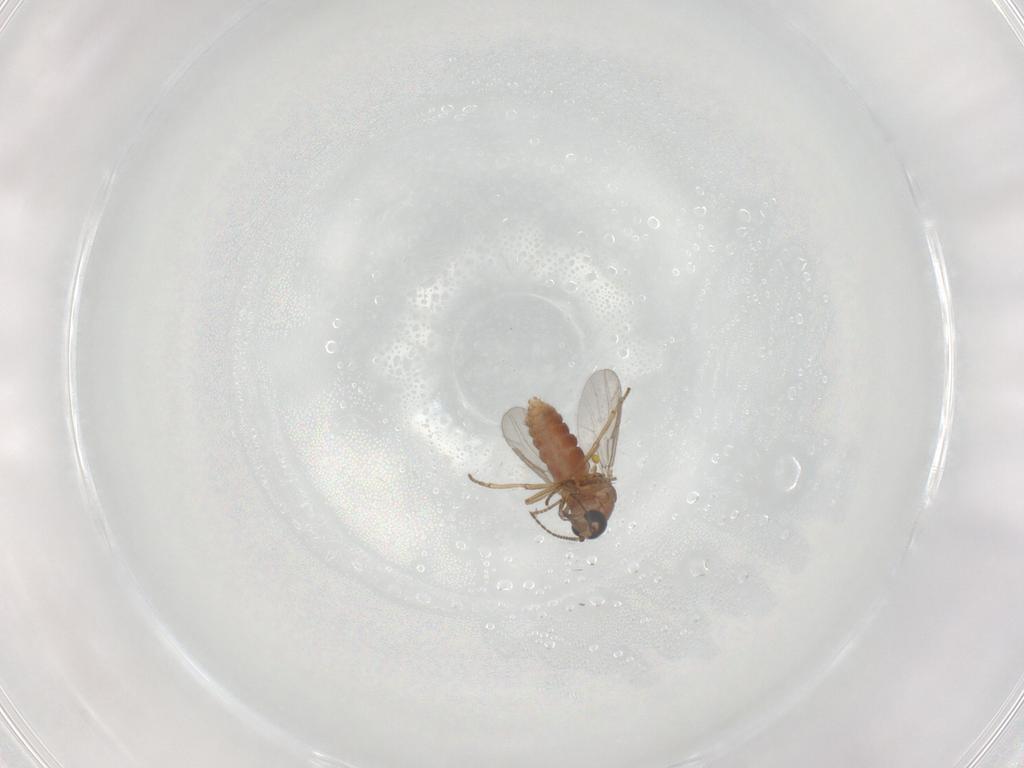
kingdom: Animalia
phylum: Arthropoda
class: Insecta
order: Diptera
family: Ceratopogonidae
